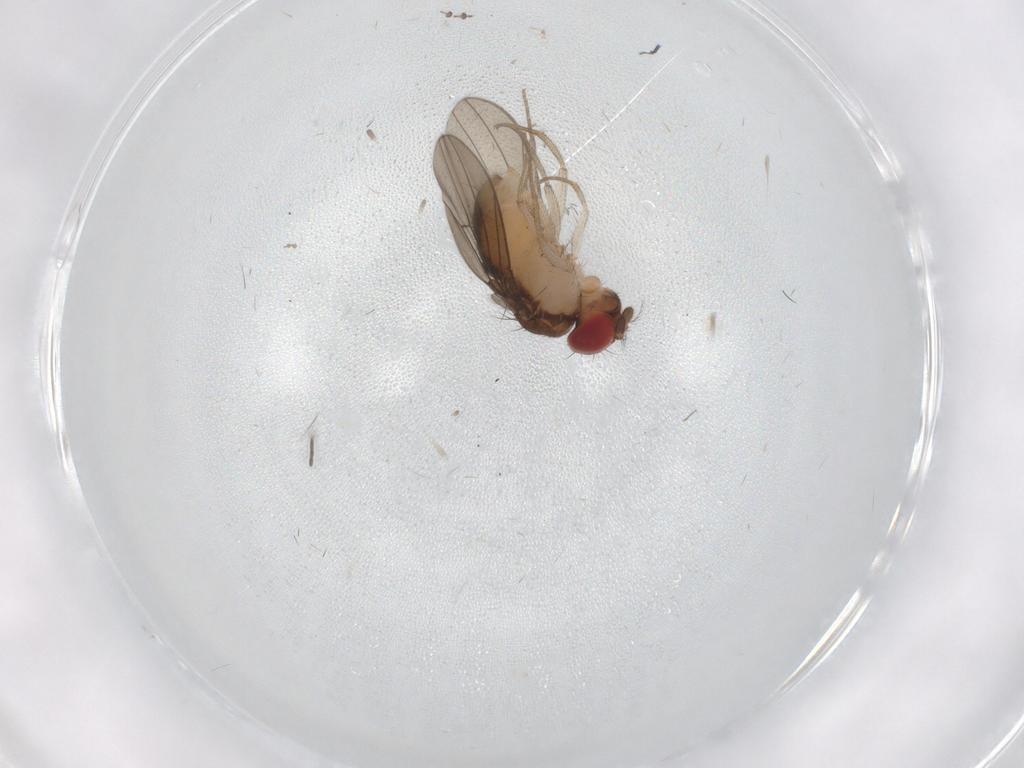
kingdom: Animalia
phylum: Arthropoda
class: Insecta
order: Diptera
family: Drosophilidae
